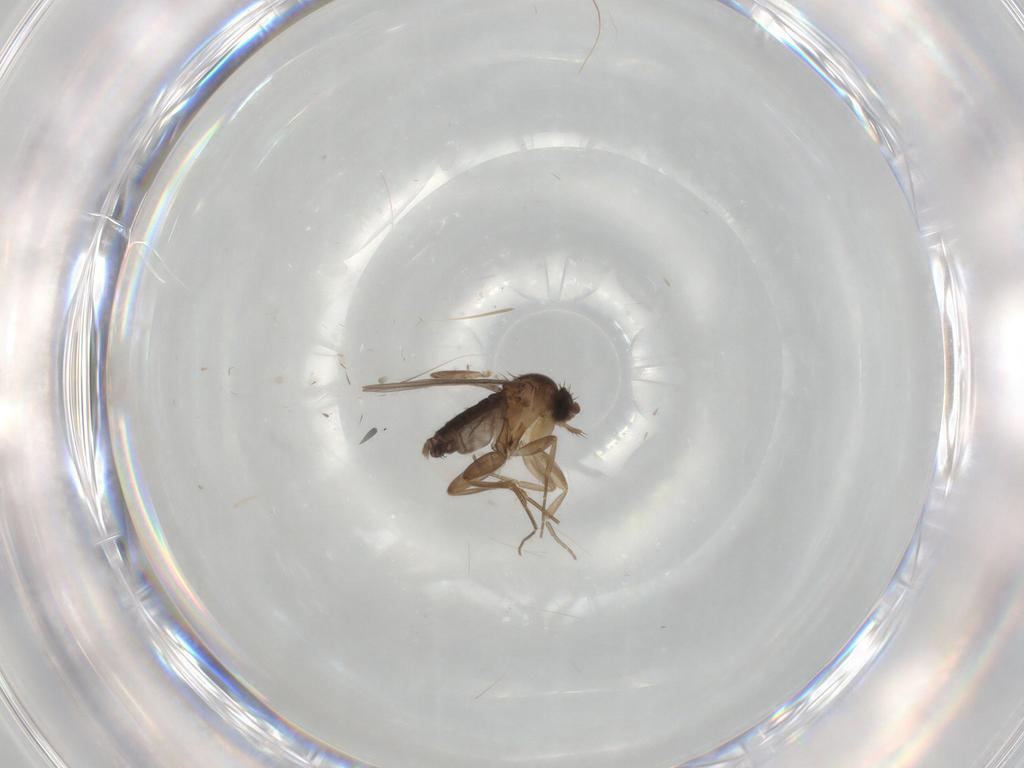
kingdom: Animalia
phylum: Arthropoda
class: Insecta
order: Diptera
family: Phoridae
